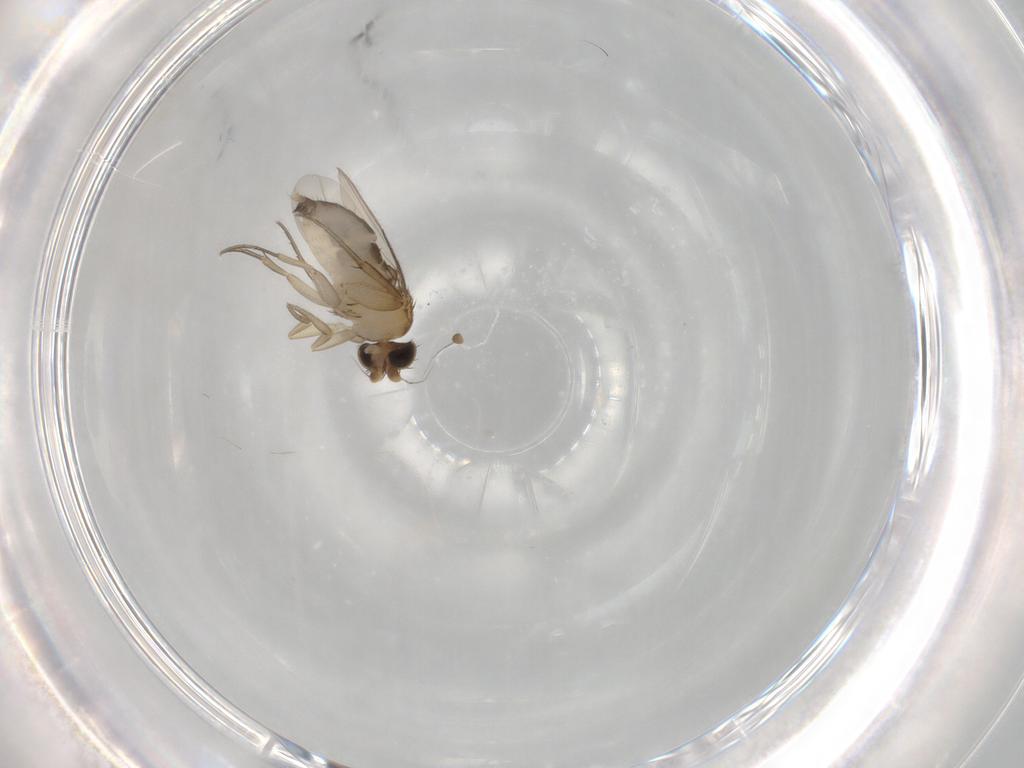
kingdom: Animalia
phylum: Arthropoda
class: Insecta
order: Diptera
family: Phoridae
